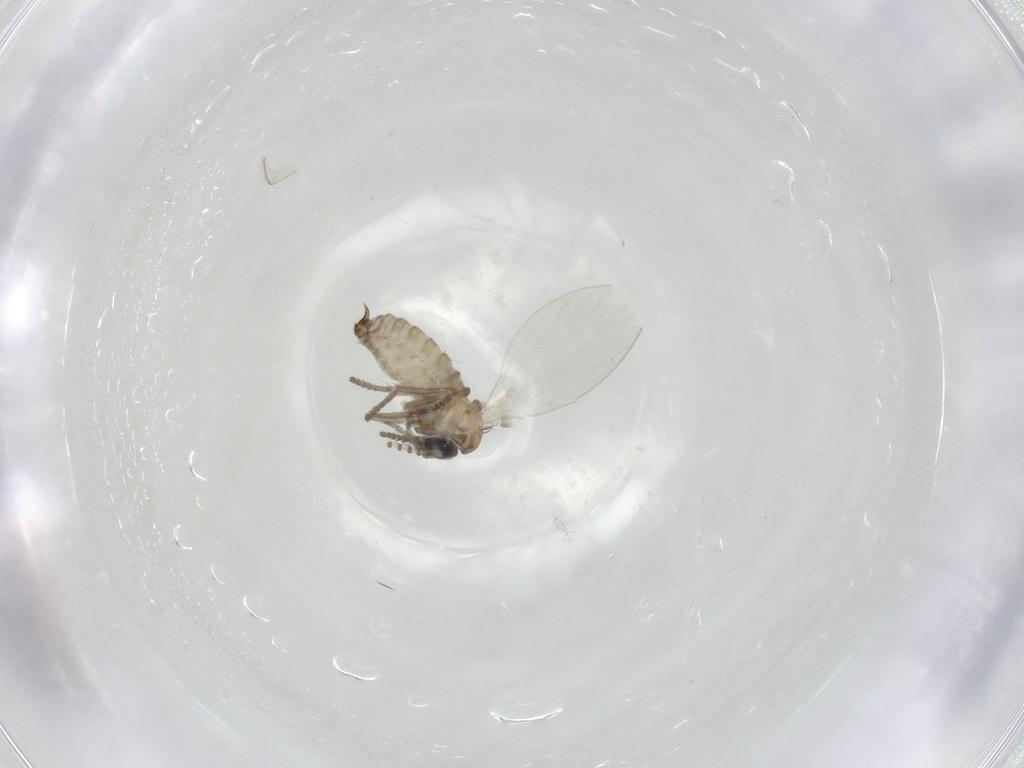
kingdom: Animalia
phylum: Arthropoda
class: Insecta
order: Diptera
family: Psychodidae
